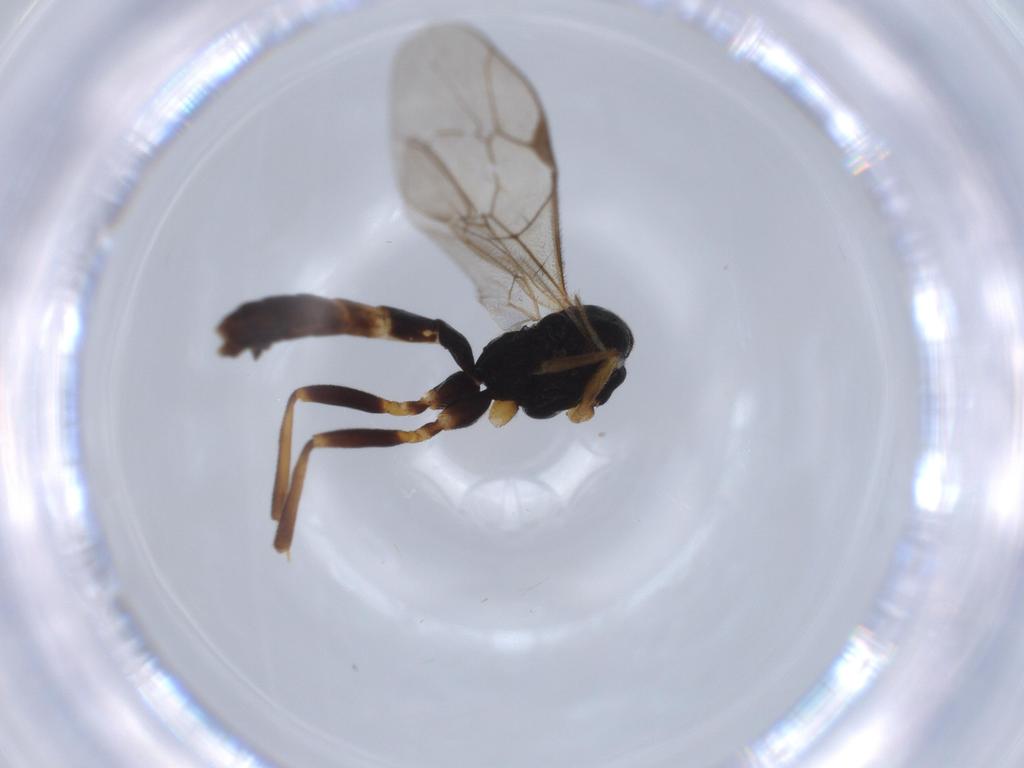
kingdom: Animalia
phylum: Arthropoda
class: Insecta
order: Hymenoptera
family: Ichneumonidae
